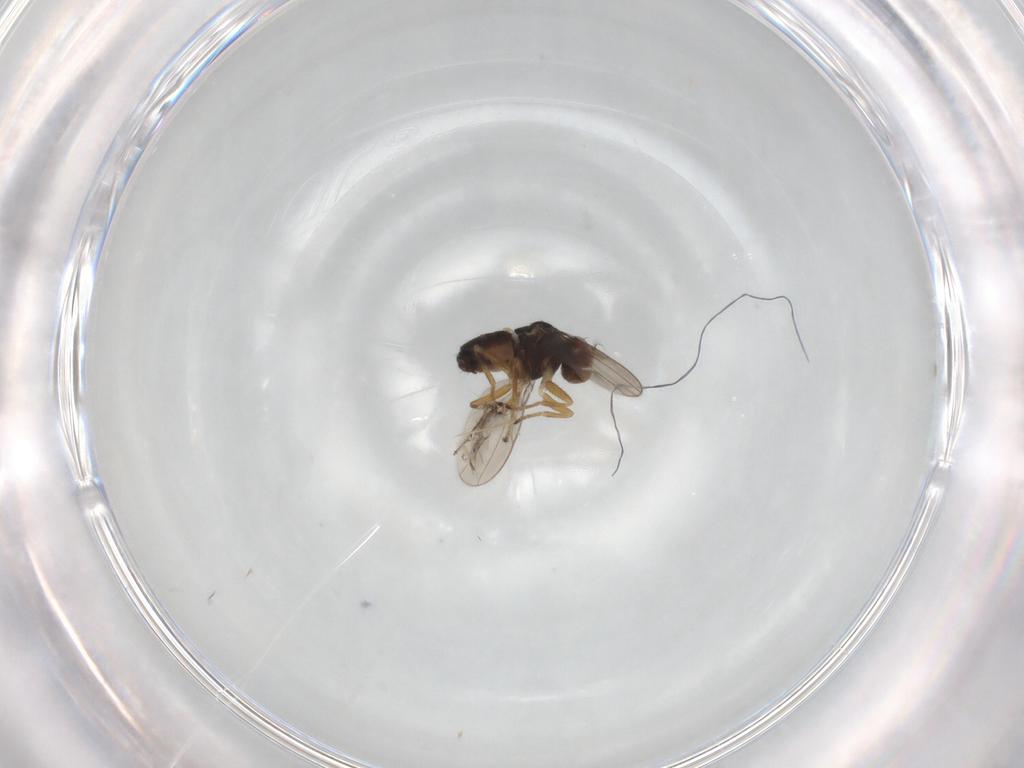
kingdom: Animalia
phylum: Arthropoda
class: Insecta
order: Diptera
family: Ephydridae
